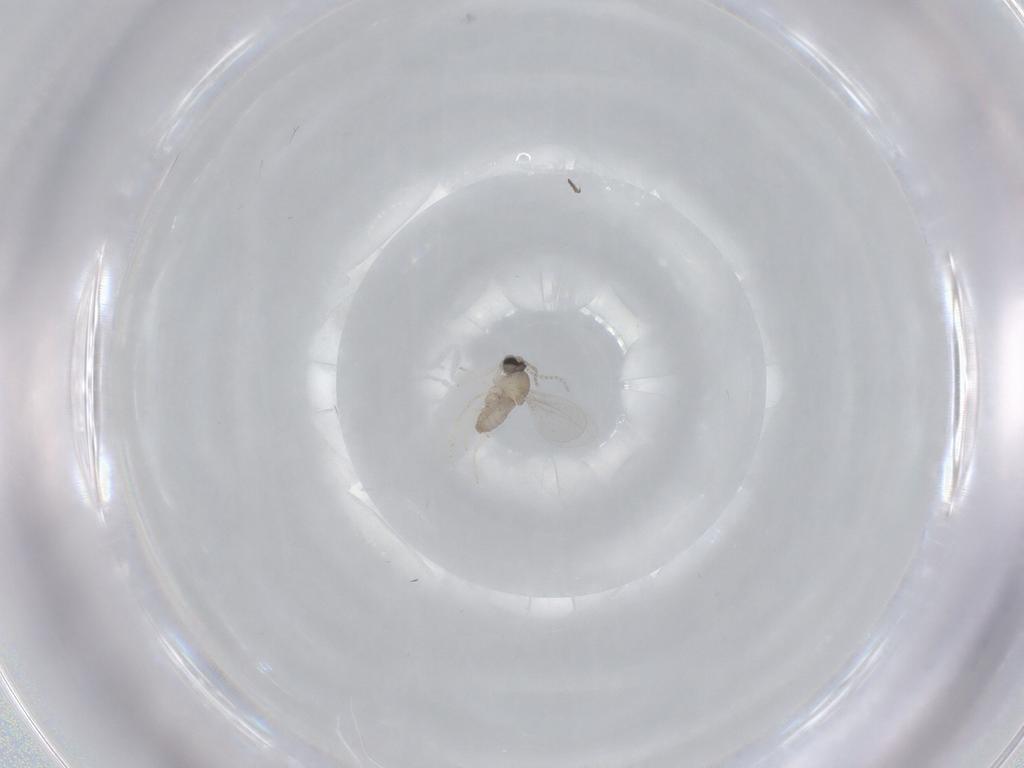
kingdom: Animalia
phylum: Arthropoda
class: Insecta
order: Diptera
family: Cecidomyiidae
